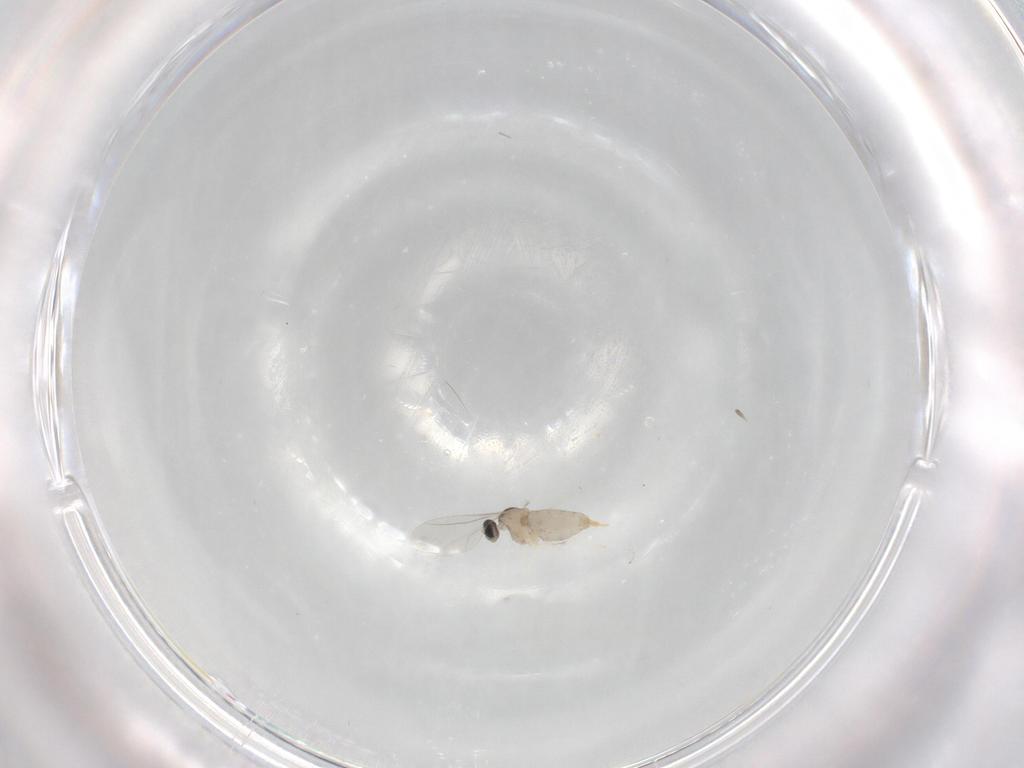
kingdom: Animalia
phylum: Arthropoda
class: Insecta
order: Diptera
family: Cecidomyiidae
